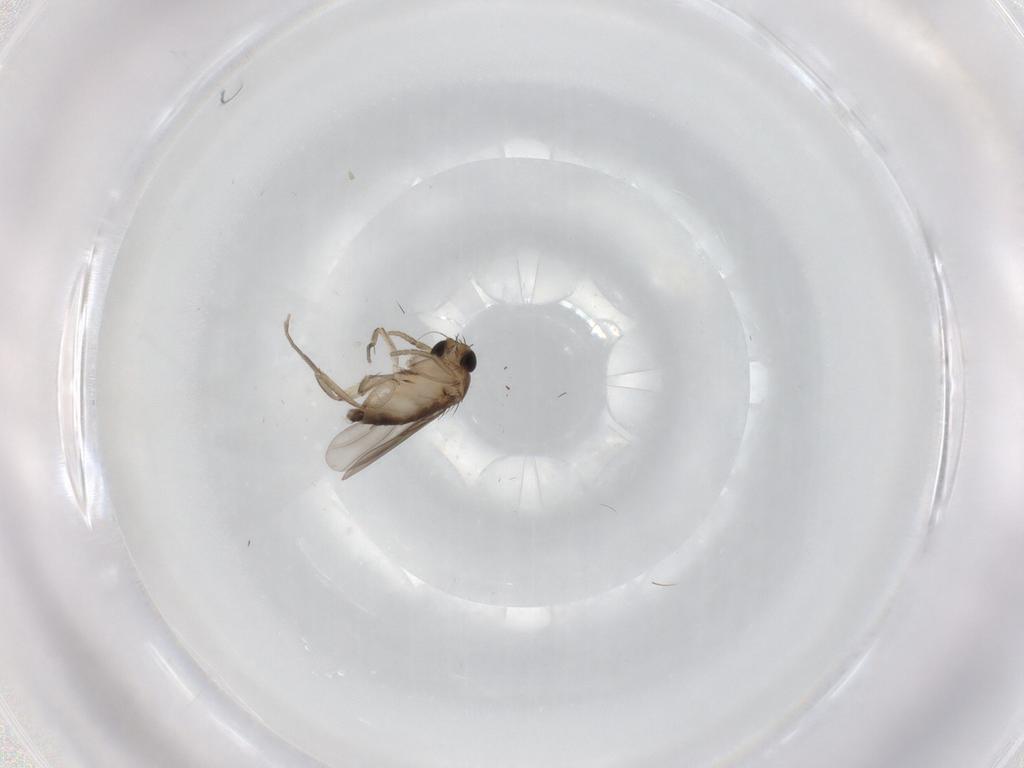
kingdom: Animalia
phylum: Arthropoda
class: Insecta
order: Diptera
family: Phoridae
